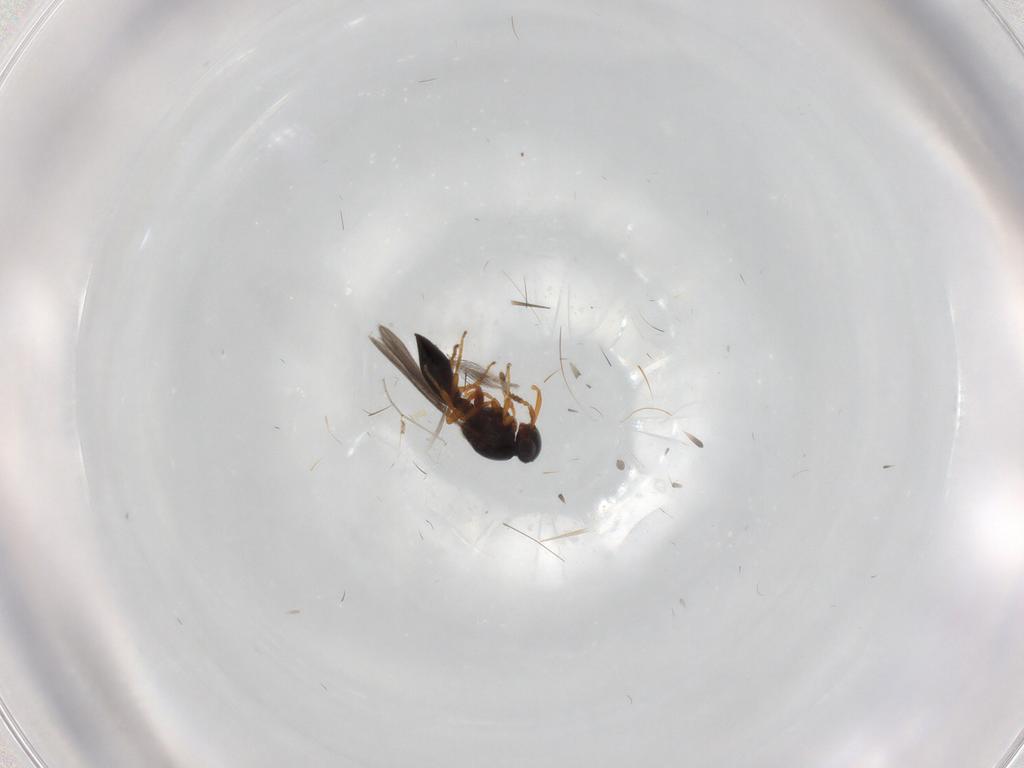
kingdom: Animalia
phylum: Arthropoda
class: Insecta
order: Hymenoptera
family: Platygastridae
